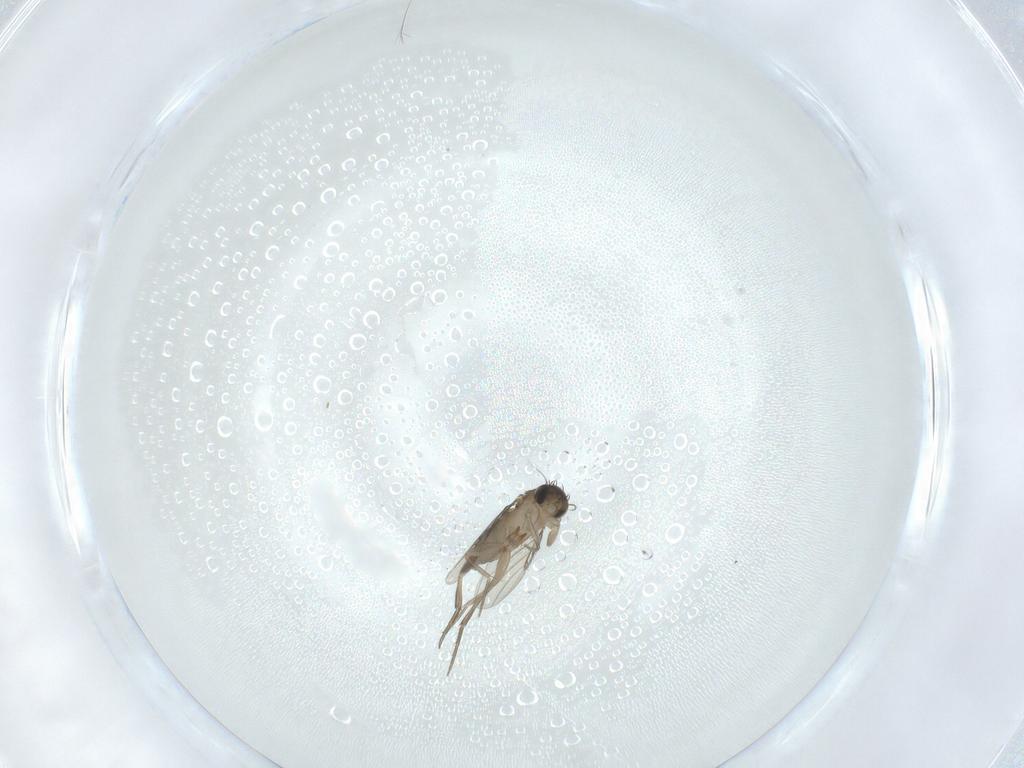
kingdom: Animalia
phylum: Arthropoda
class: Insecta
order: Diptera
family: Phoridae
